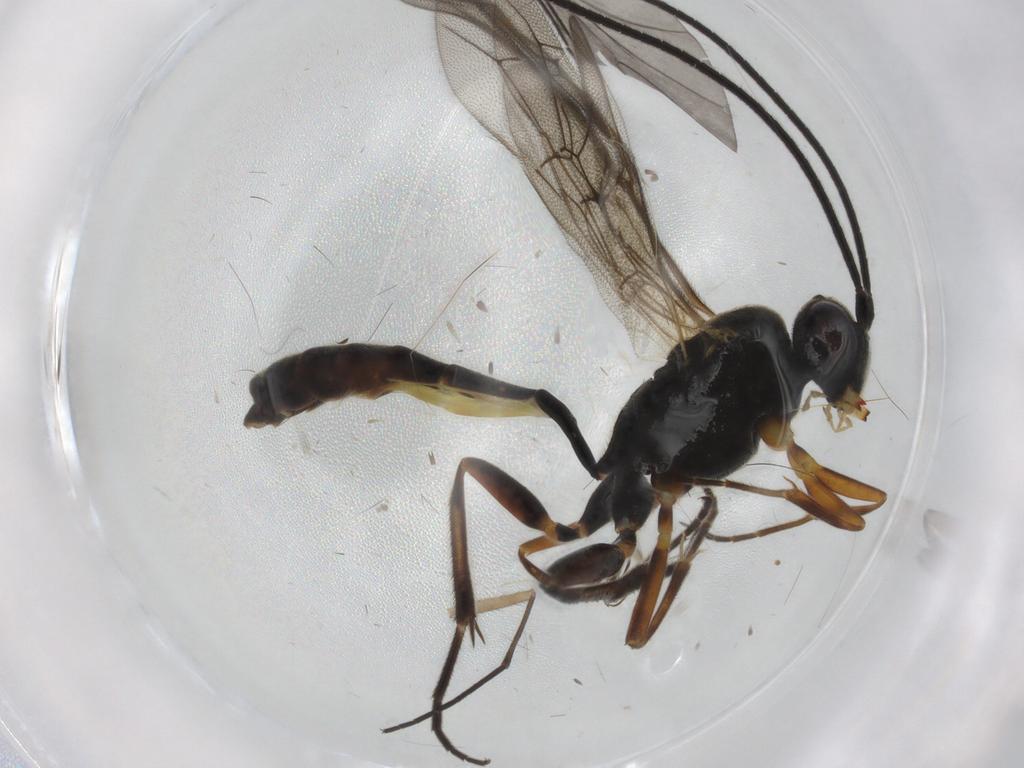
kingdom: Animalia
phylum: Arthropoda
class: Insecta
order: Hymenoptera
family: Ichneumonidae
